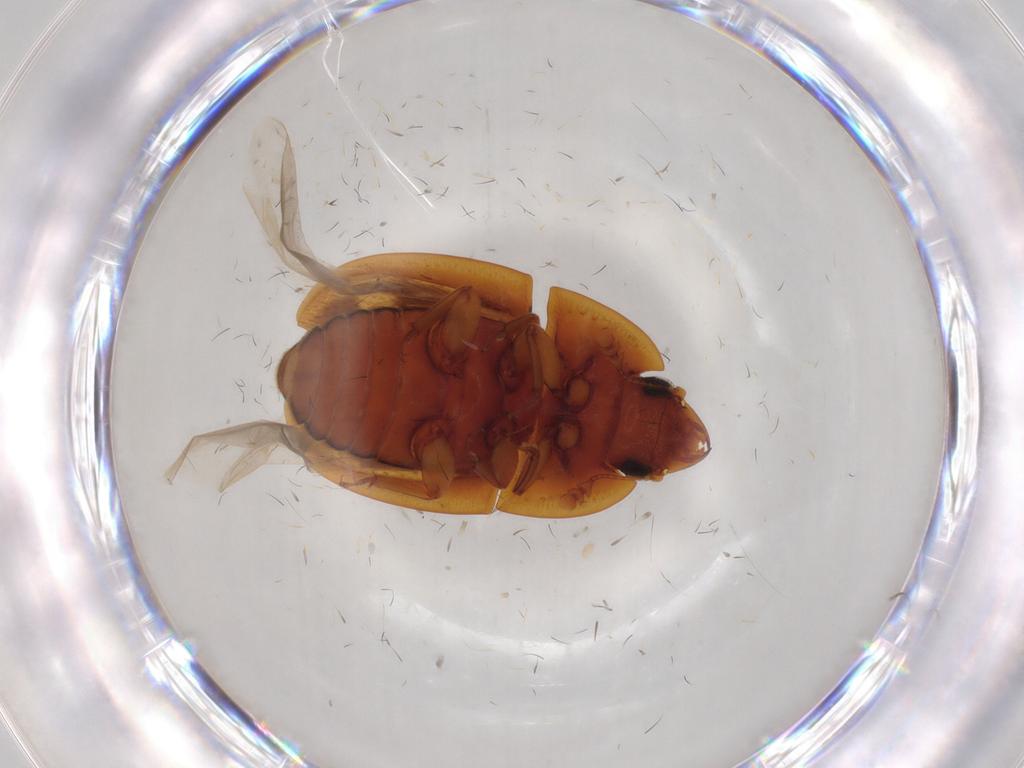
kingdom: Animalia
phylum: Arthropoda
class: Insecta
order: Coleoptera
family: Nitidulidae
